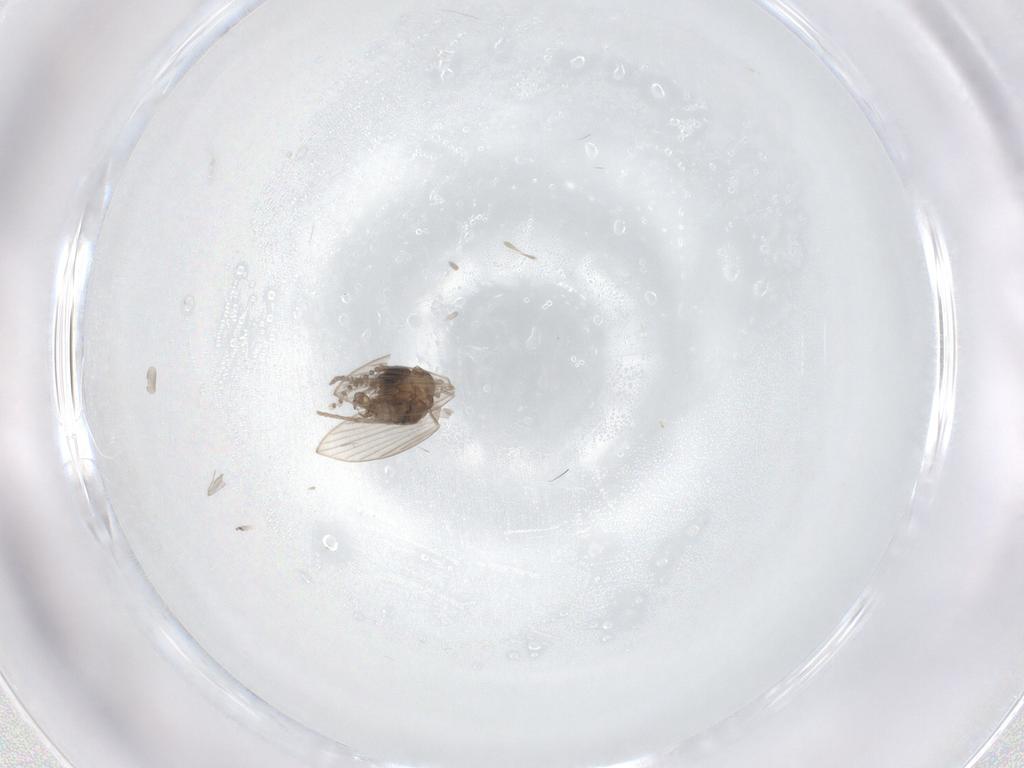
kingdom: Animalia
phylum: Arthropoda
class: Insecta
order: Diptera
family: Psychodidae
